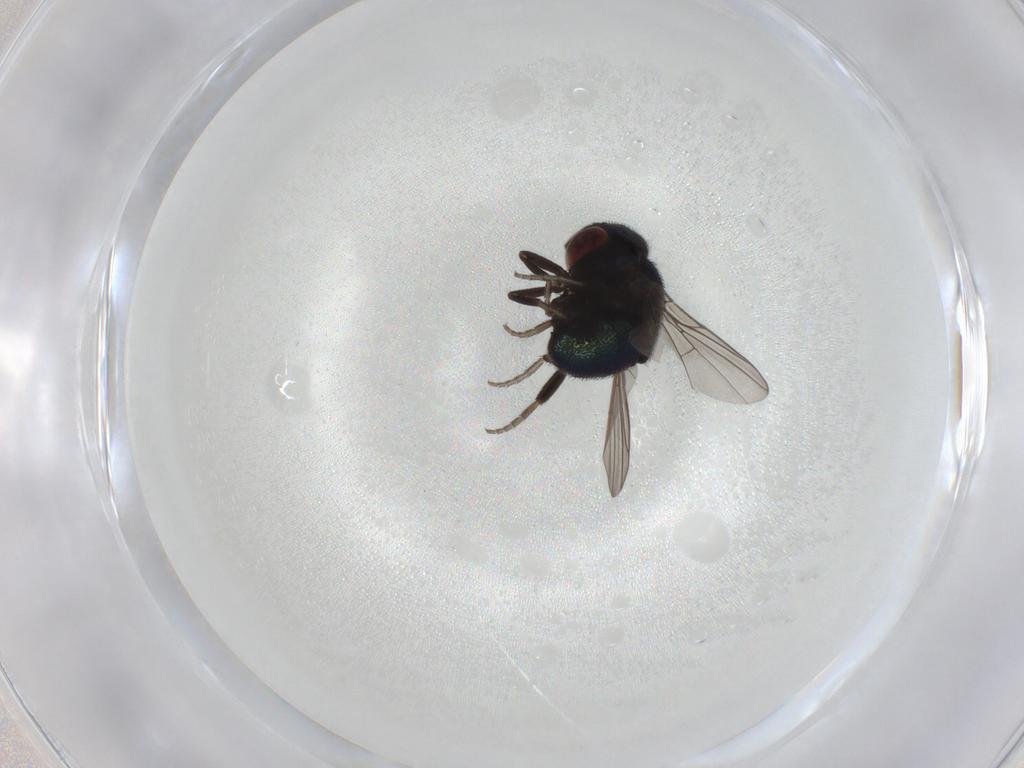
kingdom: Animalia
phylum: Arthropoda
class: Insecta
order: Diptera
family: Cryptochetidae
